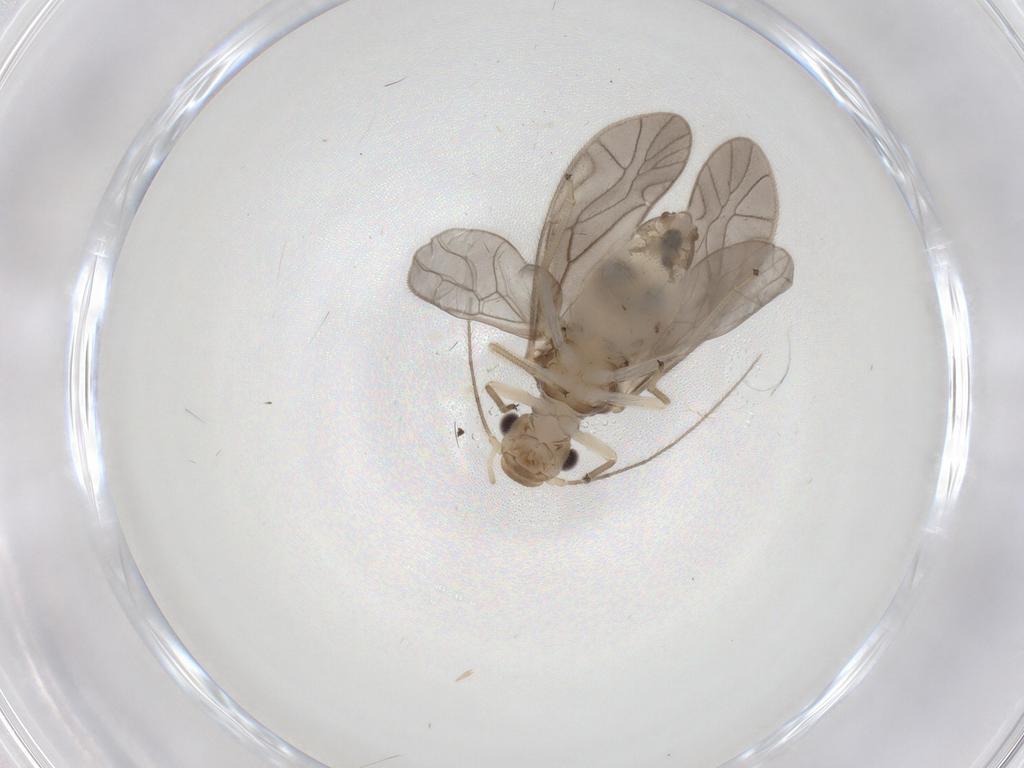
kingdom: Animalia
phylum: Arthropoda
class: Insecta
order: Psocodea
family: Caeciliusidae
